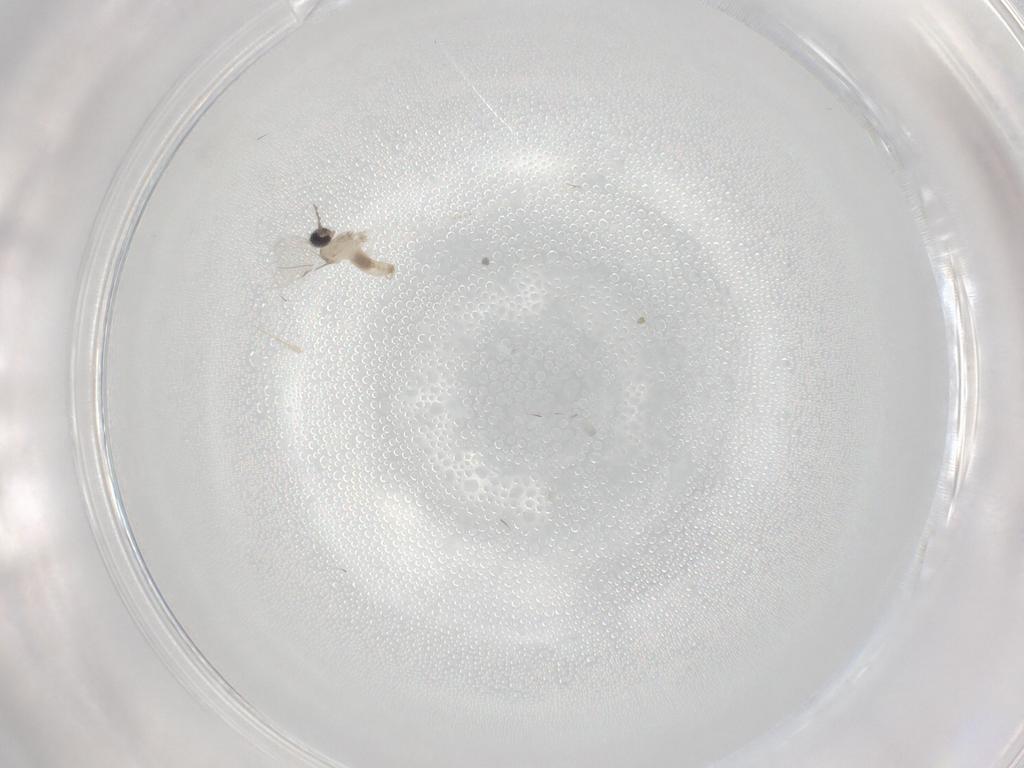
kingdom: Animalia
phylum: Arthropoda
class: Insecta
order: Diptera
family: Cecidomyiidae
